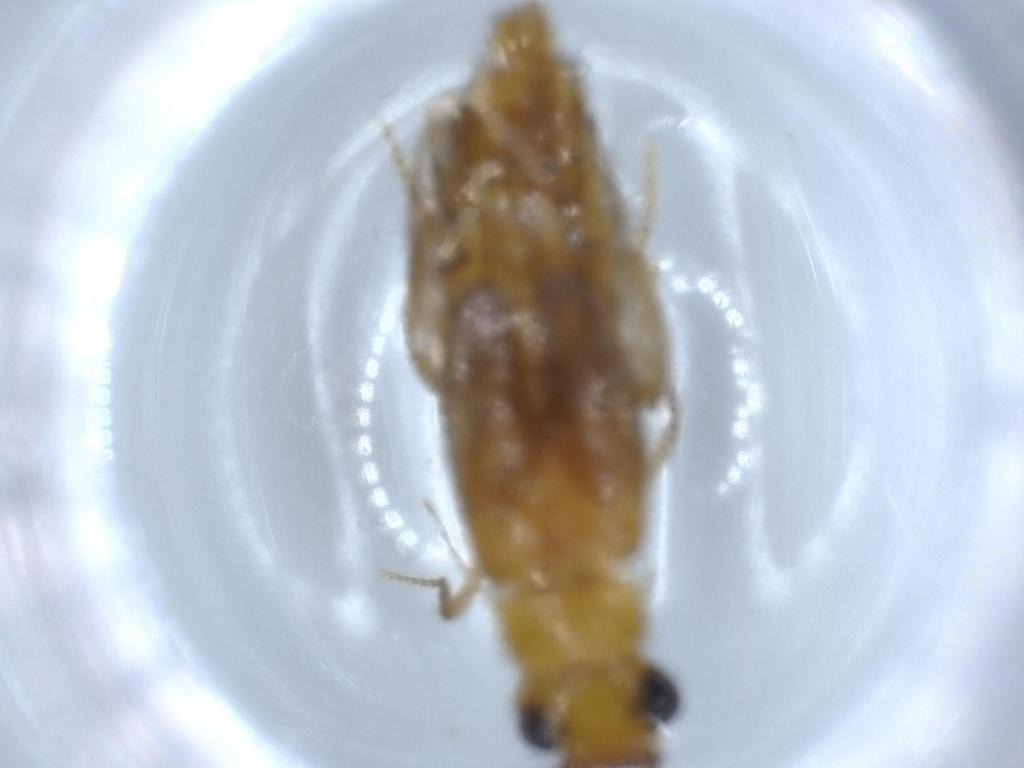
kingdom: Animalia
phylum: Arthropoda
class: Insecta
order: Coleoptera
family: Phengodidae
